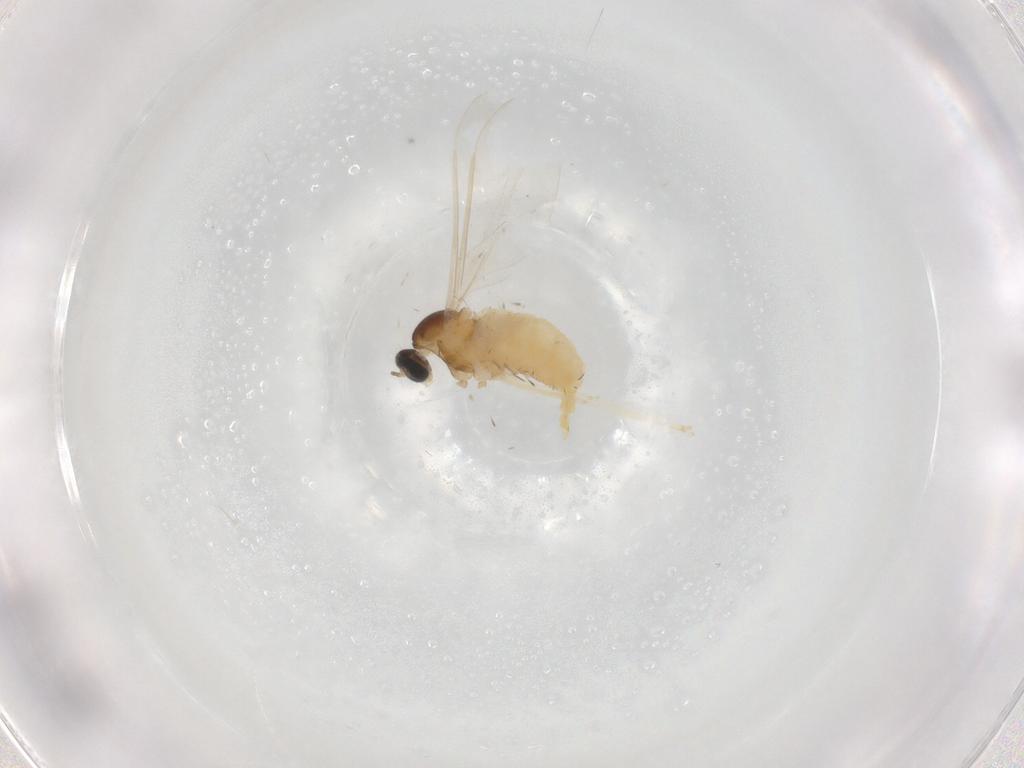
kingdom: Animalia
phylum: Arthropoda
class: Insecta
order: Diptera
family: Cecidomyiidae
